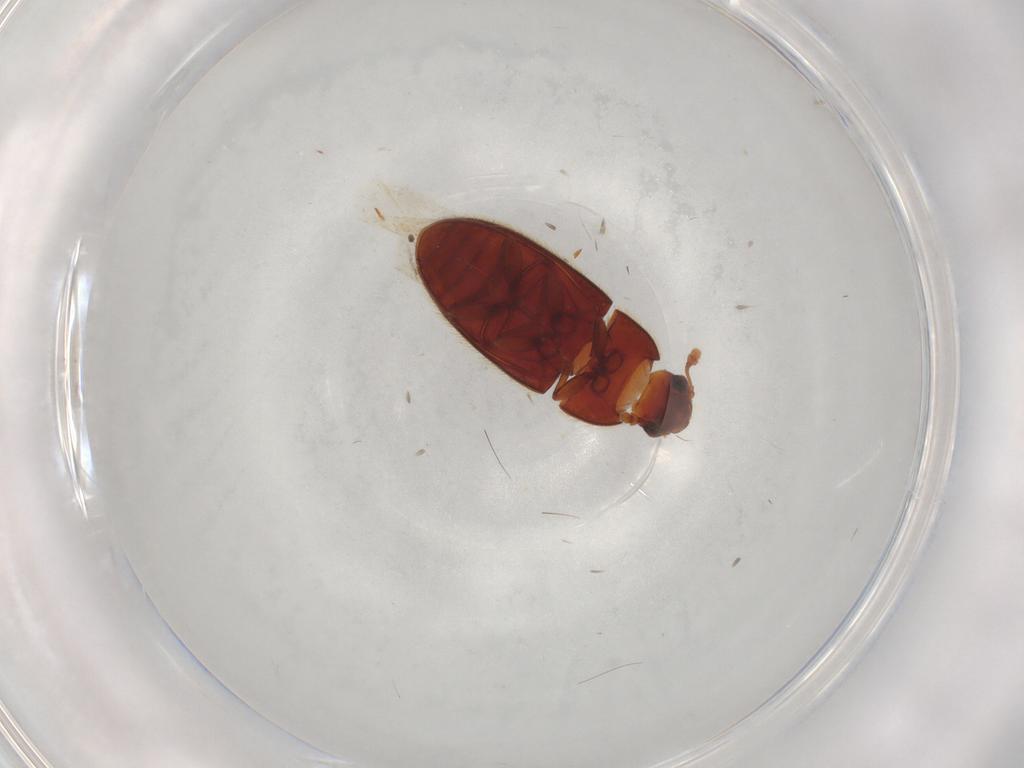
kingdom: Animalia
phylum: Arthropoda
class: Insecta
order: Coleoptera
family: Biphyllidae
